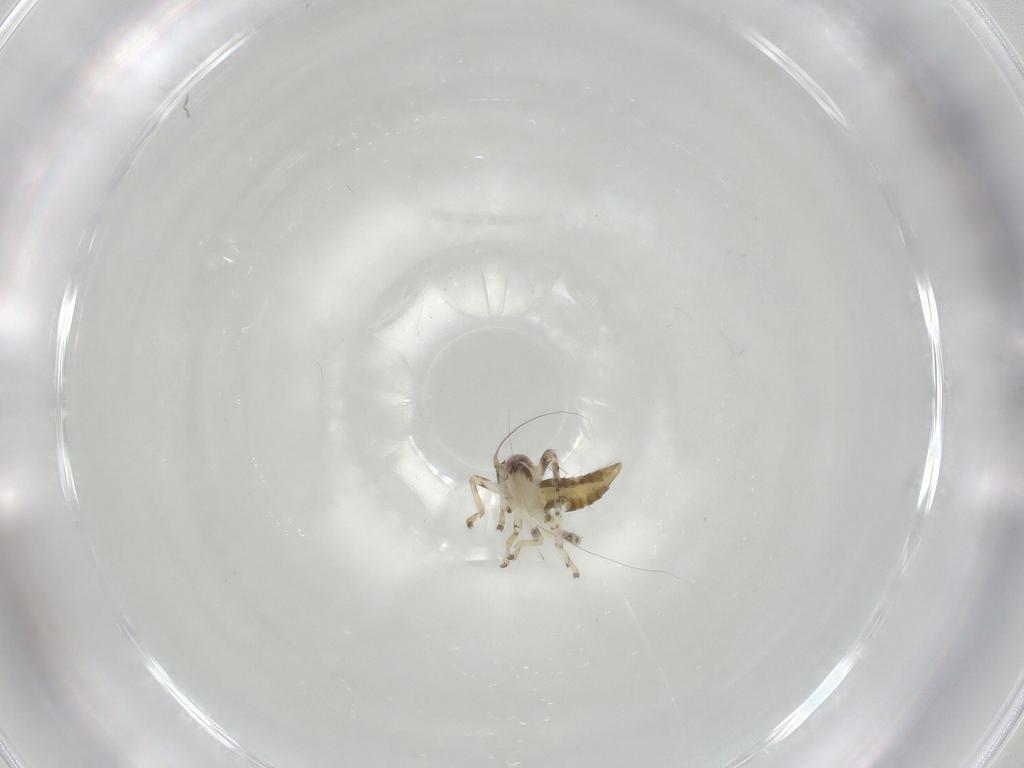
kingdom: Animalia
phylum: Arthropoda
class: Insecta
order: Hemiptera
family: Cicadellidae
